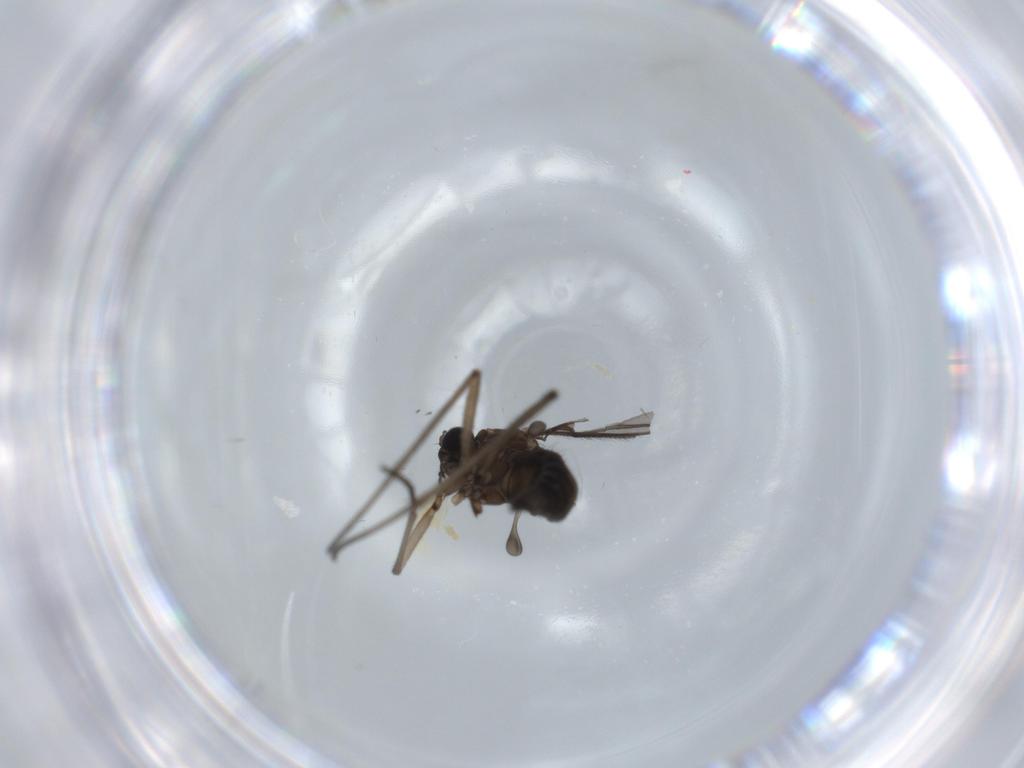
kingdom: Animalia
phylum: Arthropoda
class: Insecta
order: Diptera
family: Sciaridae
